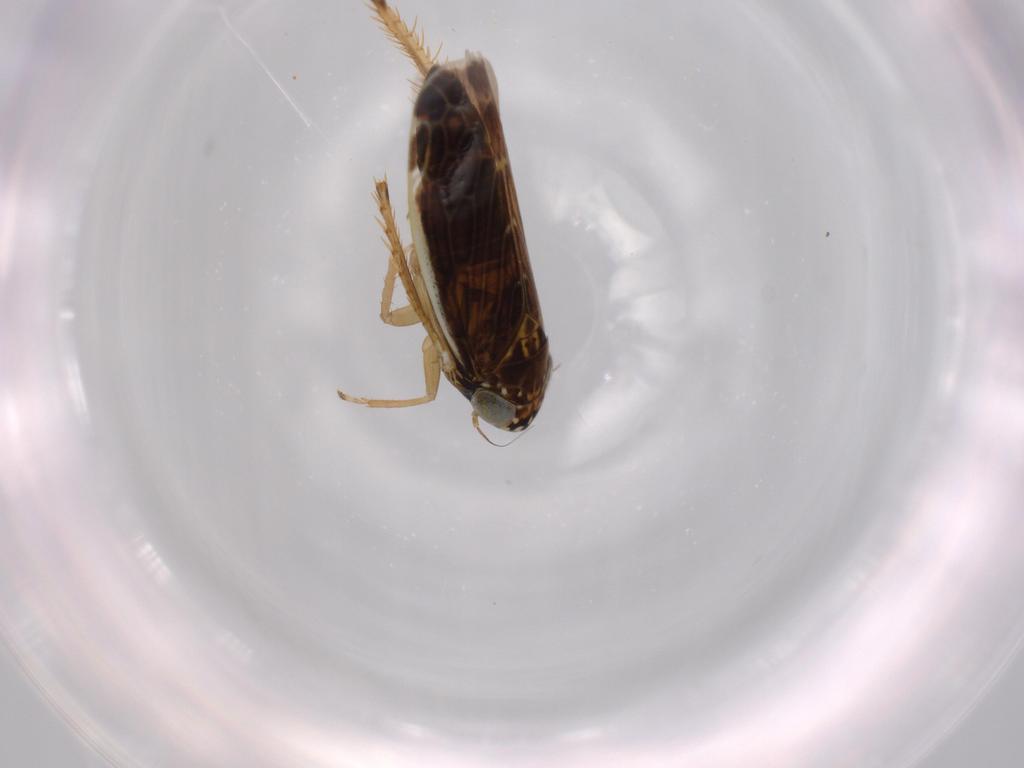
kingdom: Animalia
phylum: Arthropoda
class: Insecta
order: Hemiptera
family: Cicadellidae
